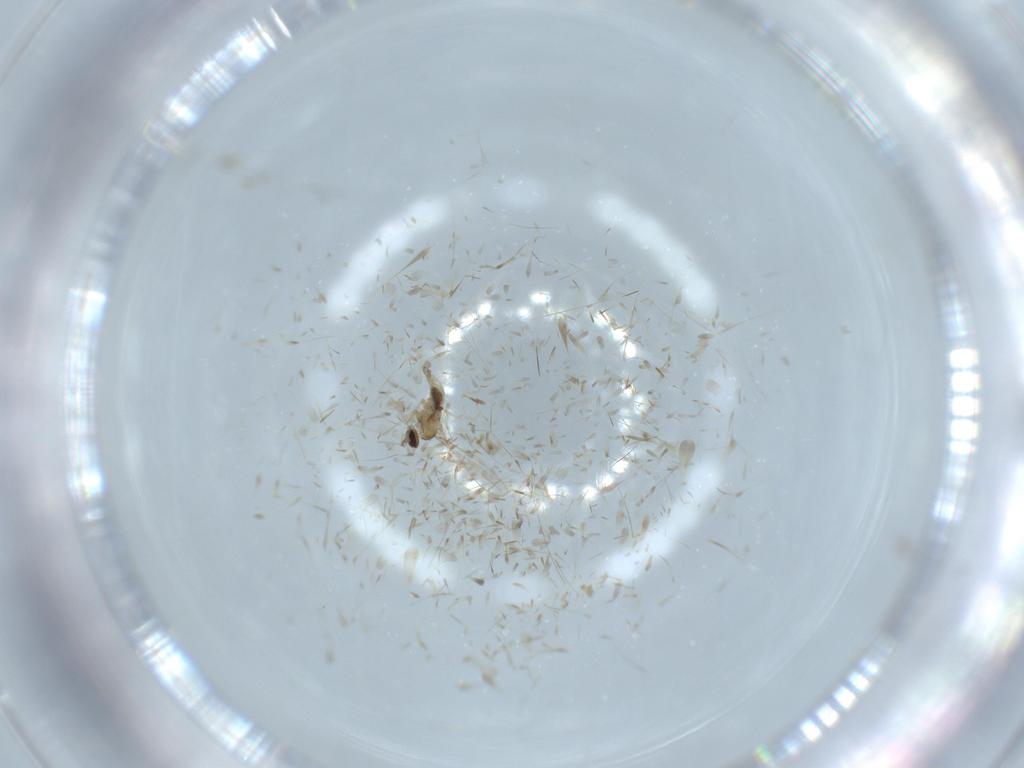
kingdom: Animalia
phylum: Arthropoda
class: Insecta
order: Diptera
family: Cecidomyiidae
